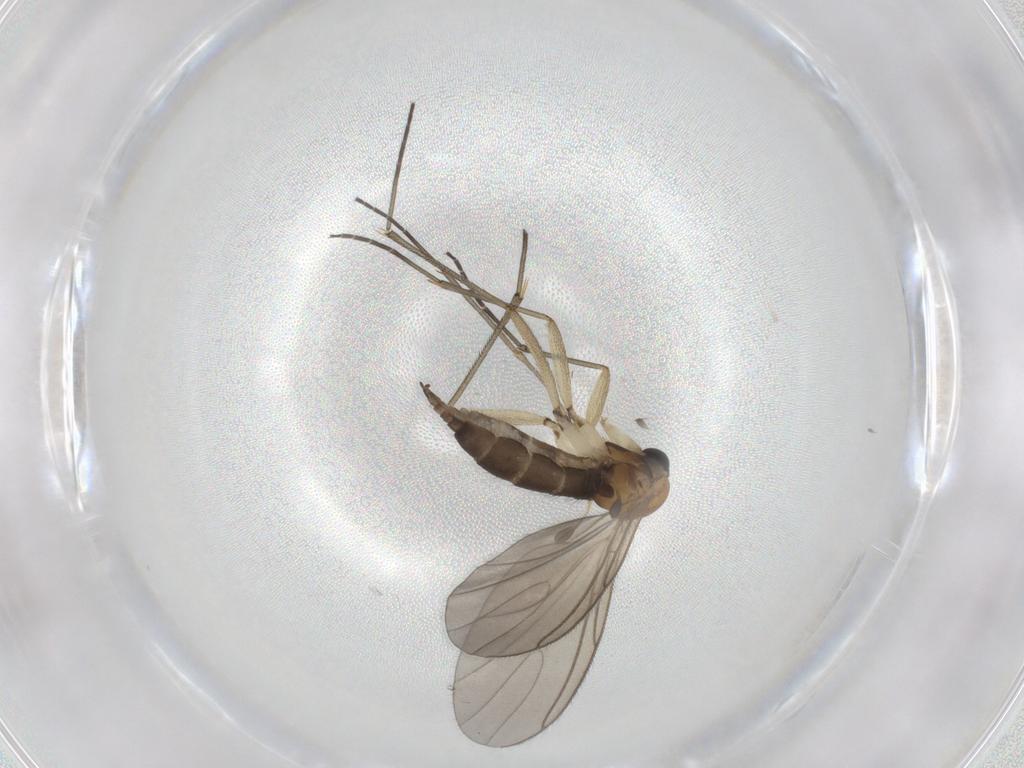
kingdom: Animalia
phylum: Arthropoda
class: Insecta
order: Diptera
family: Sciaridae
